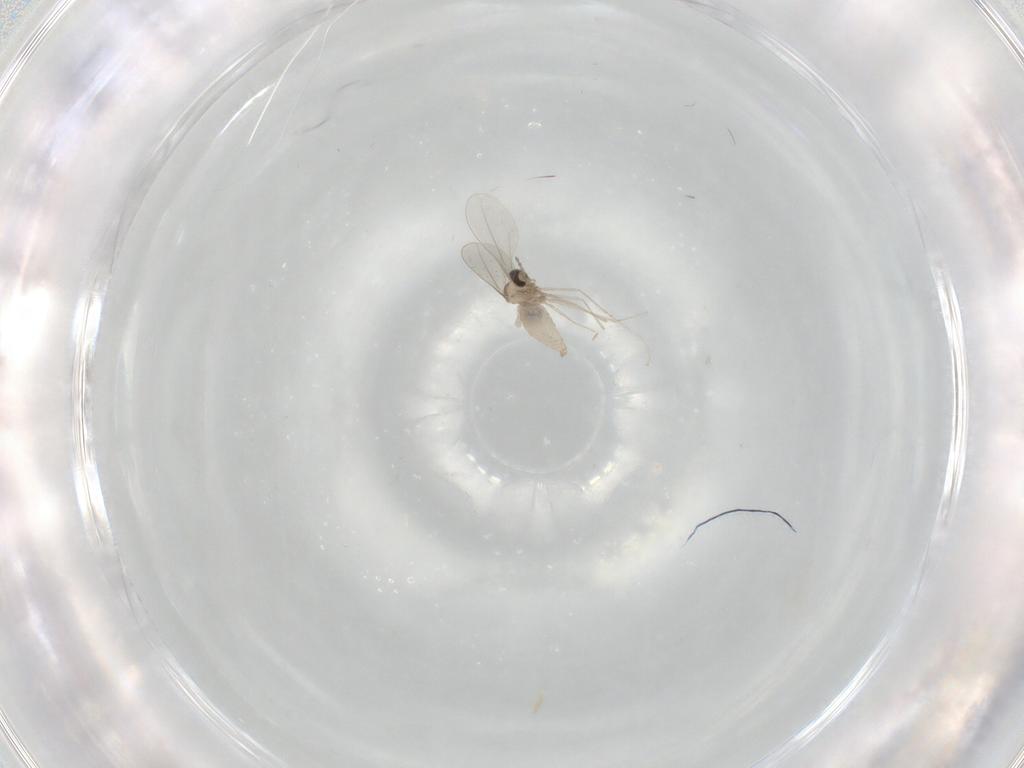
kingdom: Animalia
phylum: Arthropoda
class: Insecta
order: Diptera
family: Cecidomyiidae
